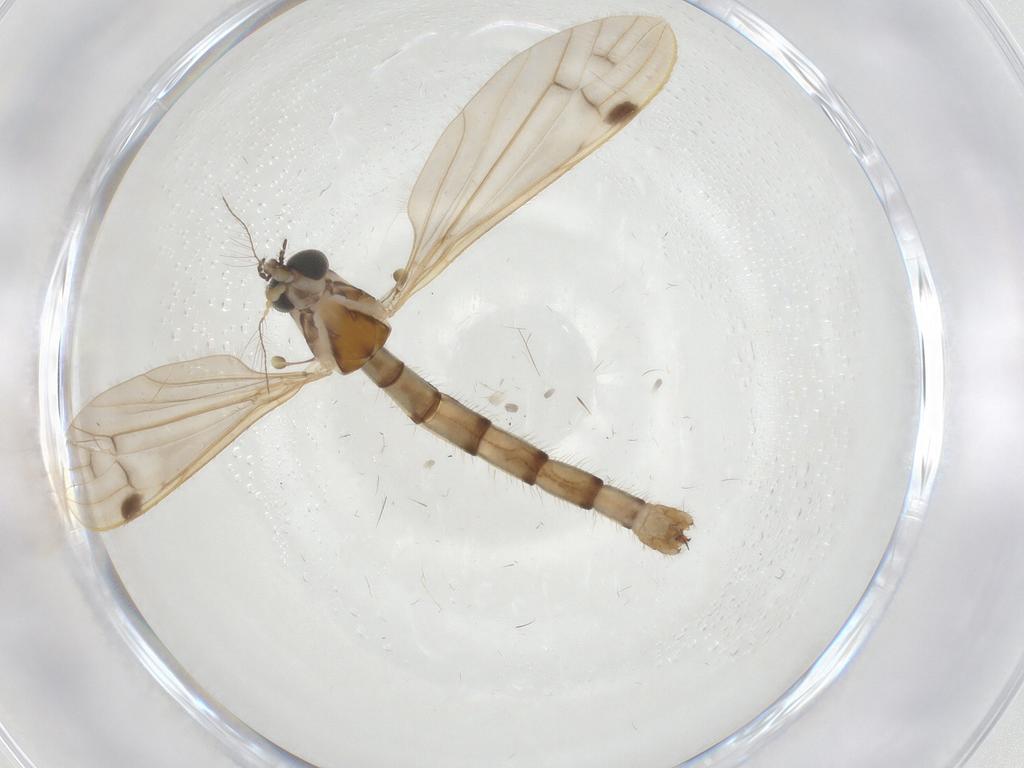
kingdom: Animalia
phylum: Arthropoda
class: Insecta
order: Diptera
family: Limoniidae
